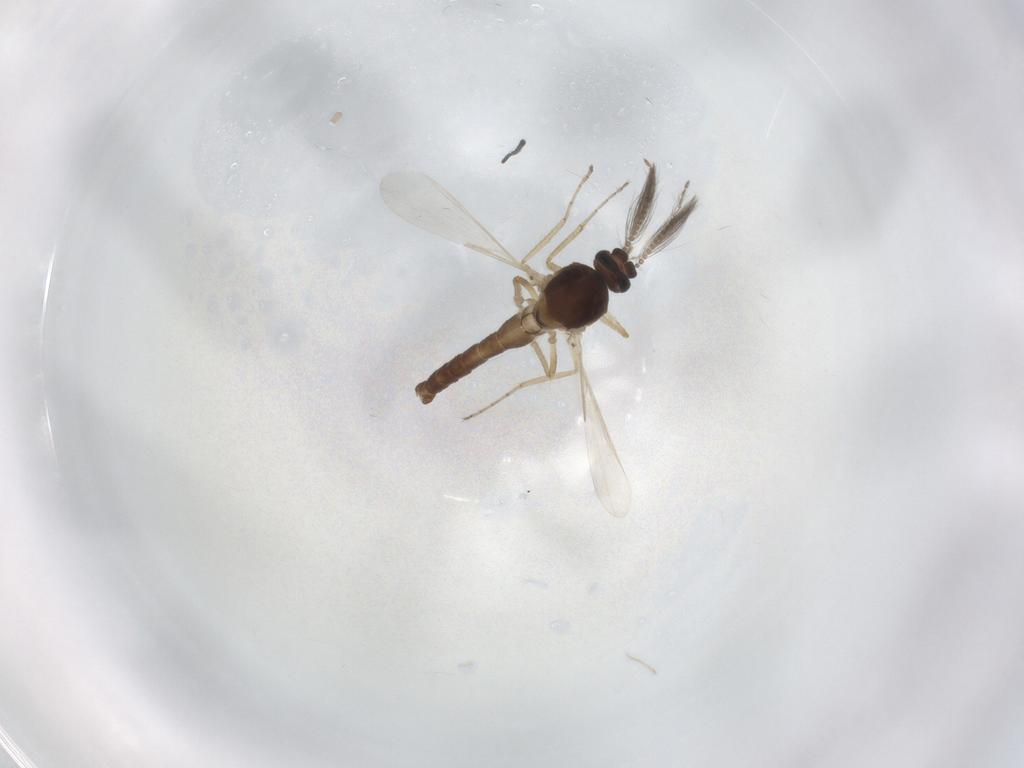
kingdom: Animalia
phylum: Arthropoda
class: Insecta
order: Diptera
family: Ceratopogonidae
